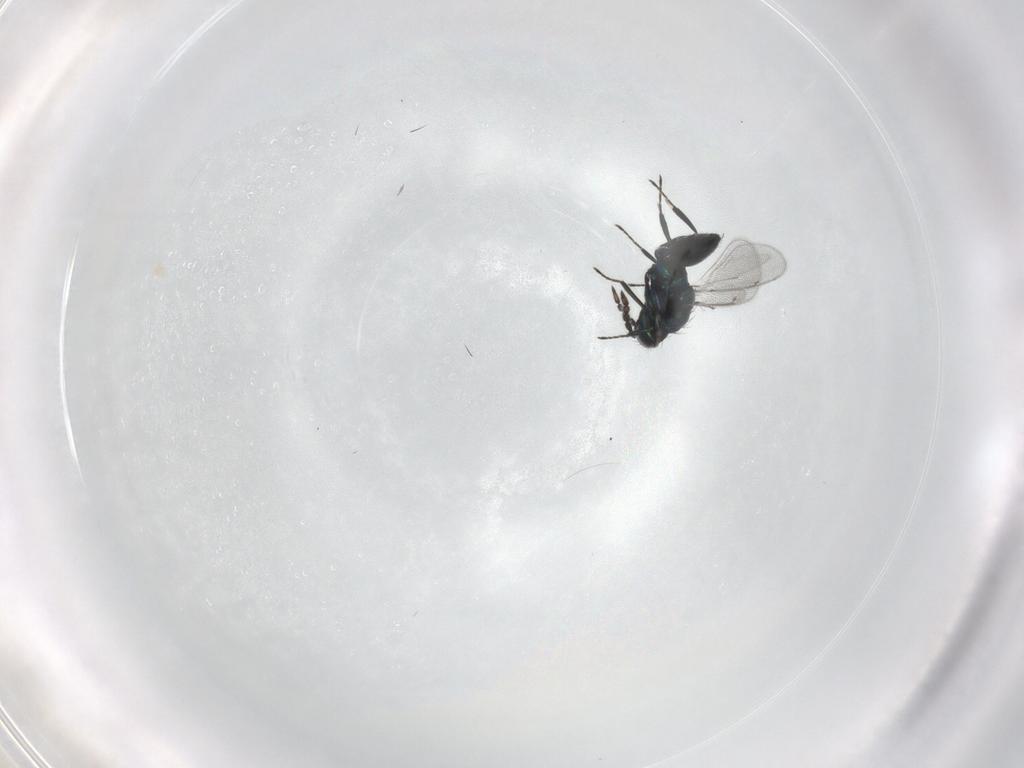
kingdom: Animalia
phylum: Arthropoda
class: Insecta
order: Hymenoptera
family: Eulophidae
